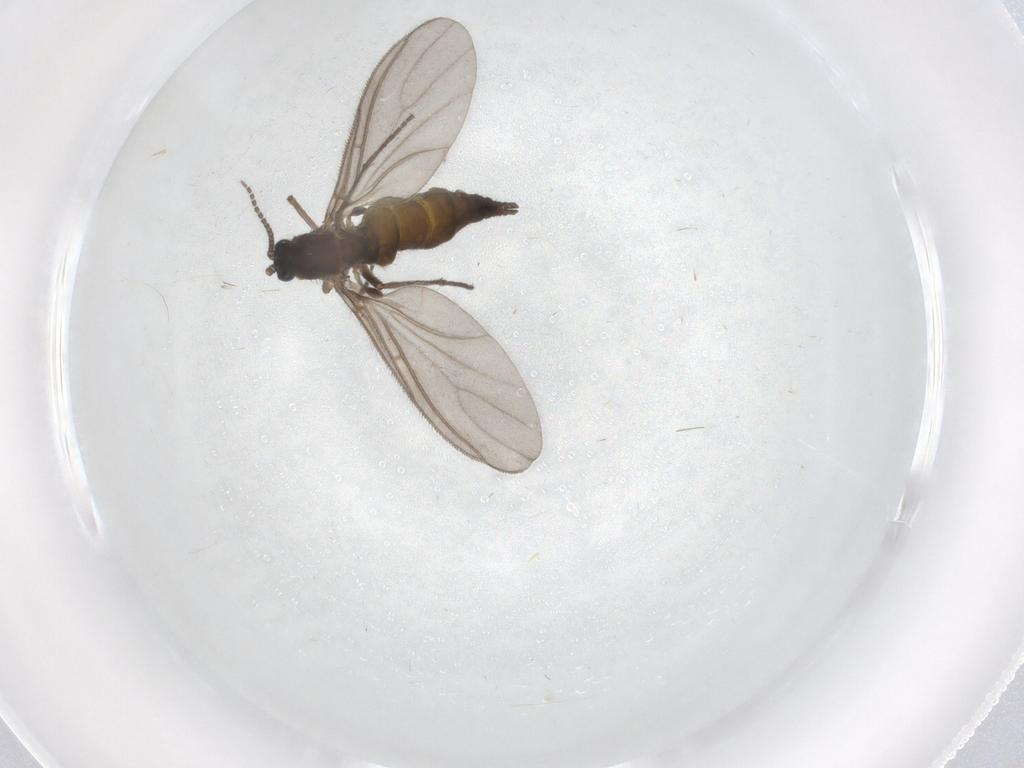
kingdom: Animalia
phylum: Arthropoda
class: Insecta
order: Diptera
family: Sciaridae
